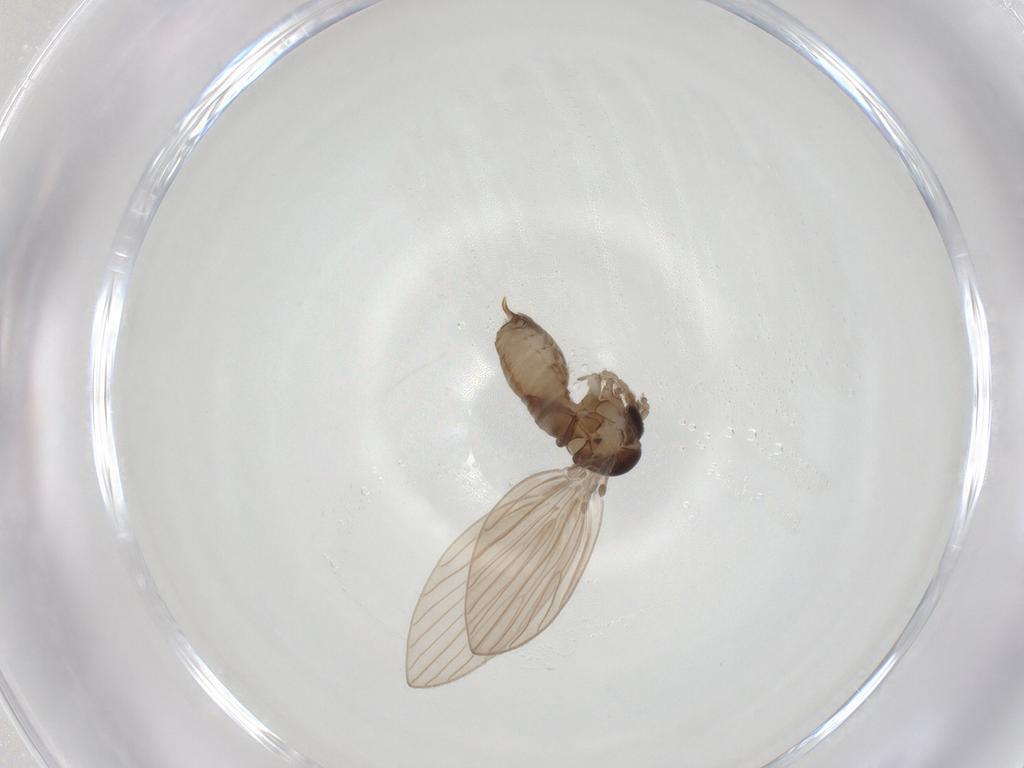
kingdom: Animalia
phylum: Arthropoda
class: Insecta
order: Diptera
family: Psychodidae
